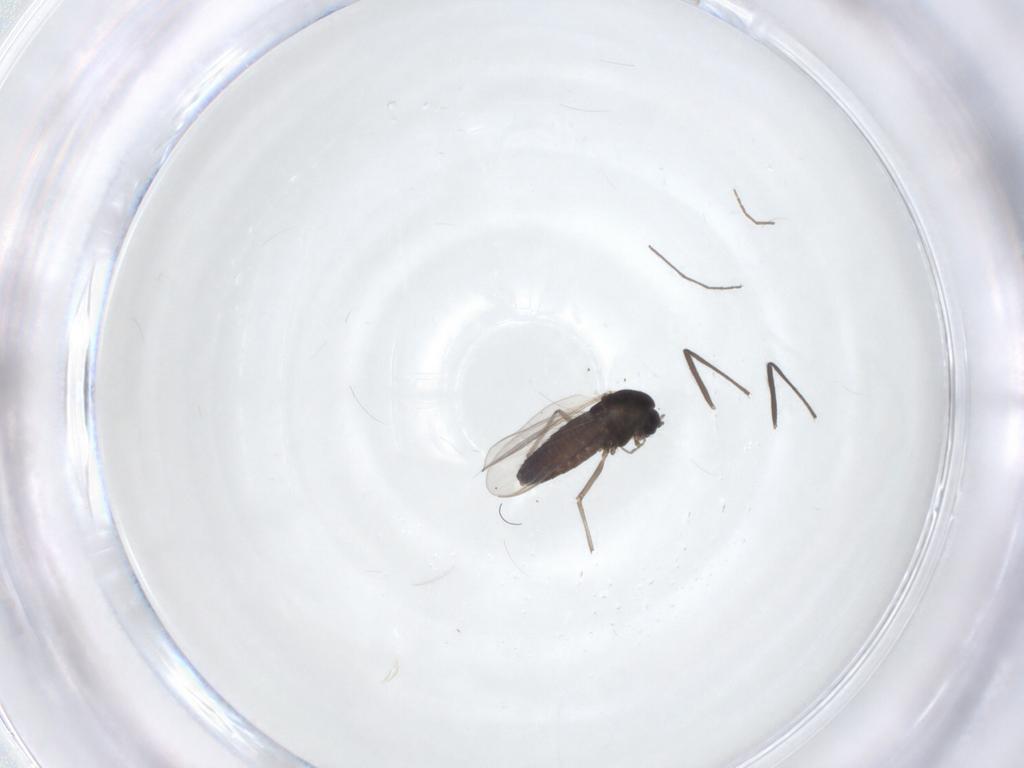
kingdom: Animalia
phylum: Arthropoda
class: Insecta
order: Diptera
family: Chironomidae
